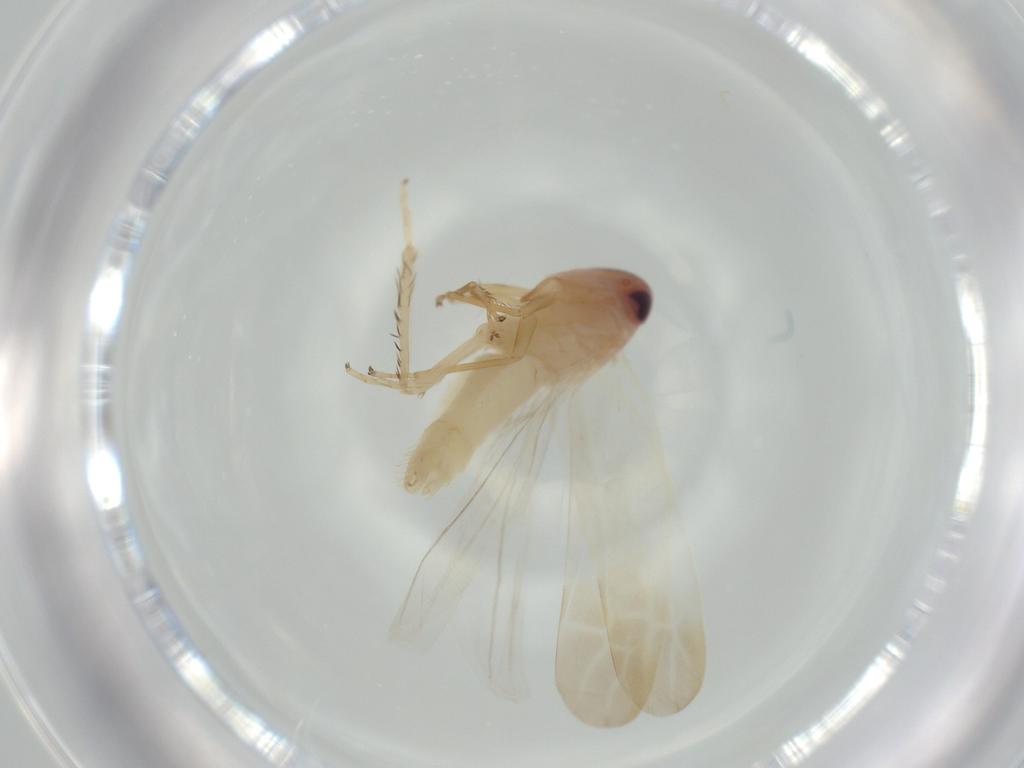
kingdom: Animalia
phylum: Arthropoda
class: Insecta
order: Hemiptera
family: Cicadellidae
